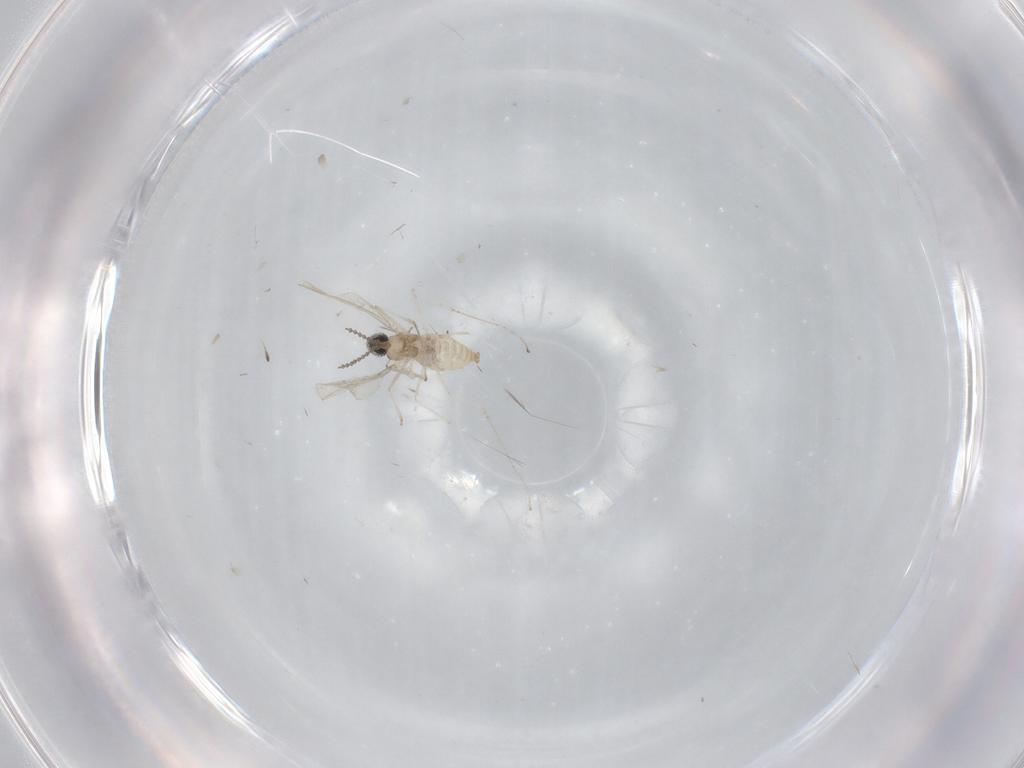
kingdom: Animalia
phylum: Arthropoda
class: Insecta
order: Diptera
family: Cecidomyiidae
